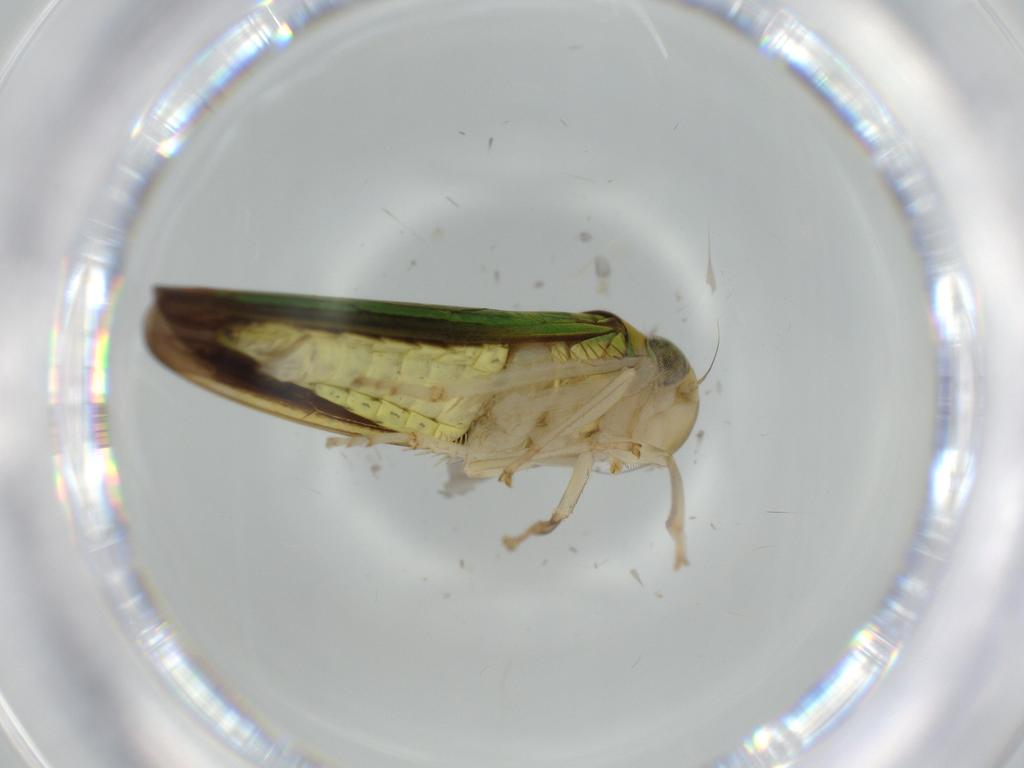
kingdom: Animalia
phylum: Arthropoda
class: Insecta
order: Hemiptera
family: Cicadellidae
